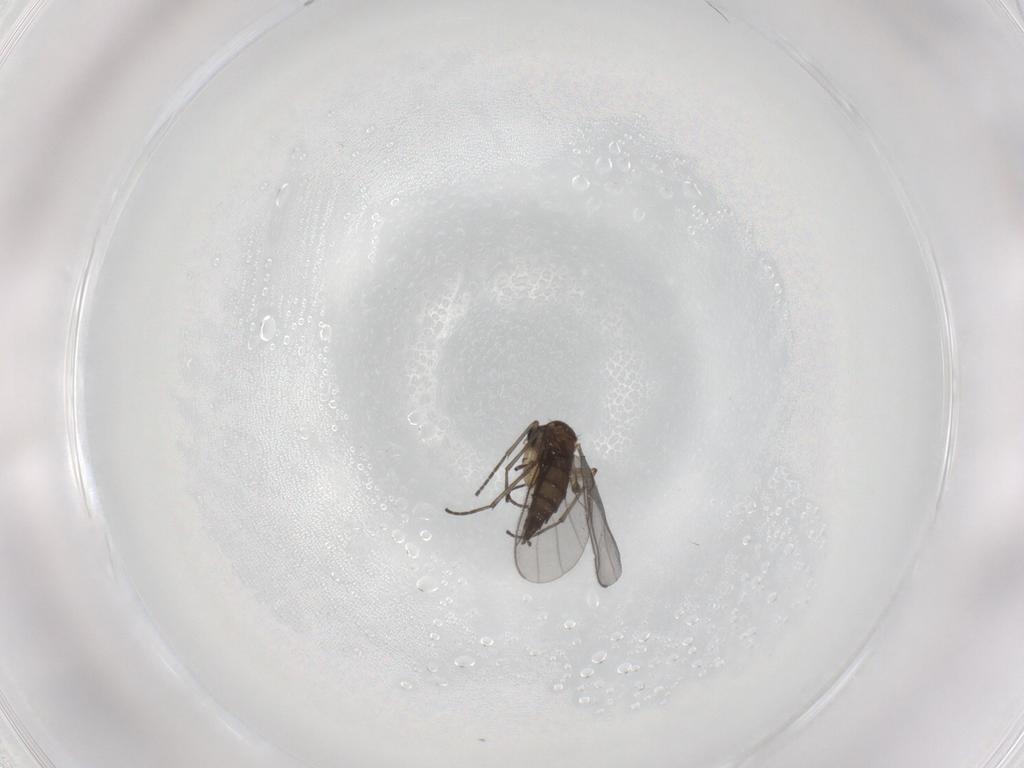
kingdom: Animalia
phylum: Arthropoda
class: Insecta
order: Diptera
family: Sciaridae
